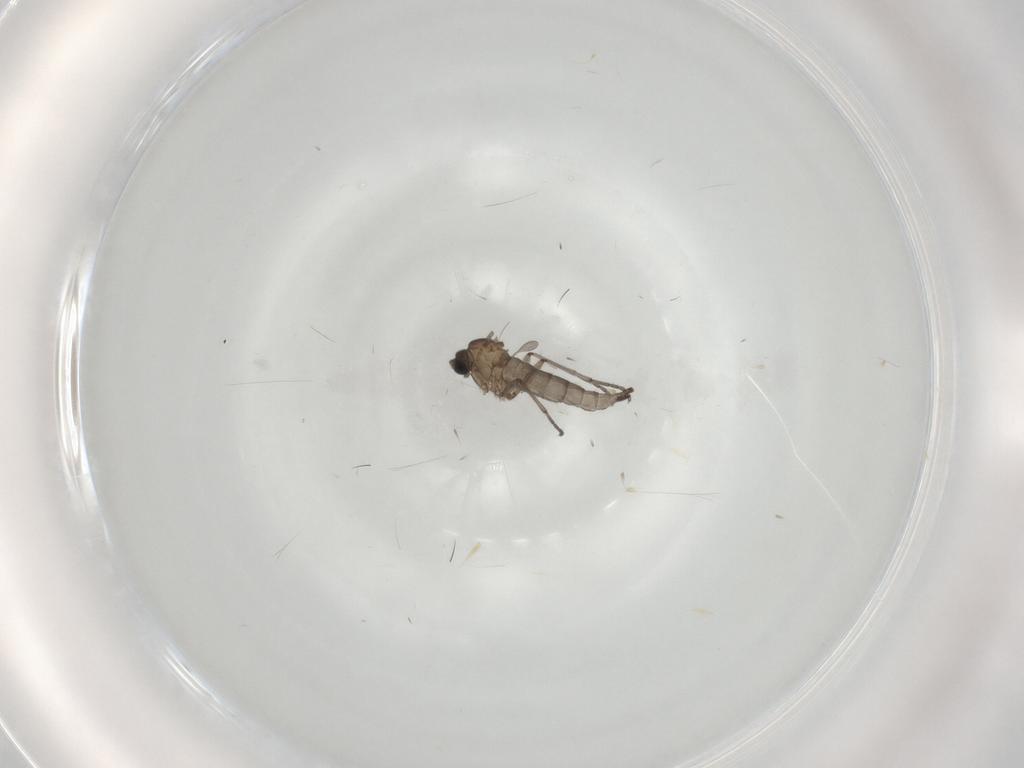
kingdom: Animalia
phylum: Arthropoda
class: Insecta
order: Diptera
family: Sciaridae
